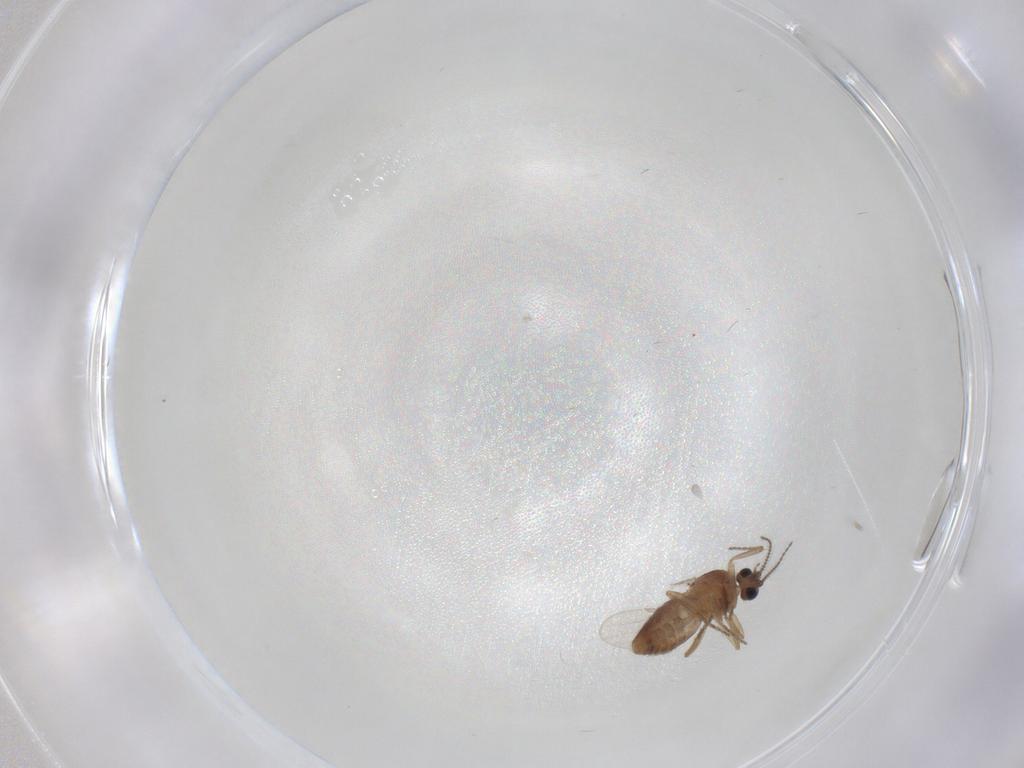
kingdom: Animalia
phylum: Arthropoda
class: Insecta
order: Diptera
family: Ceratopogonidae
